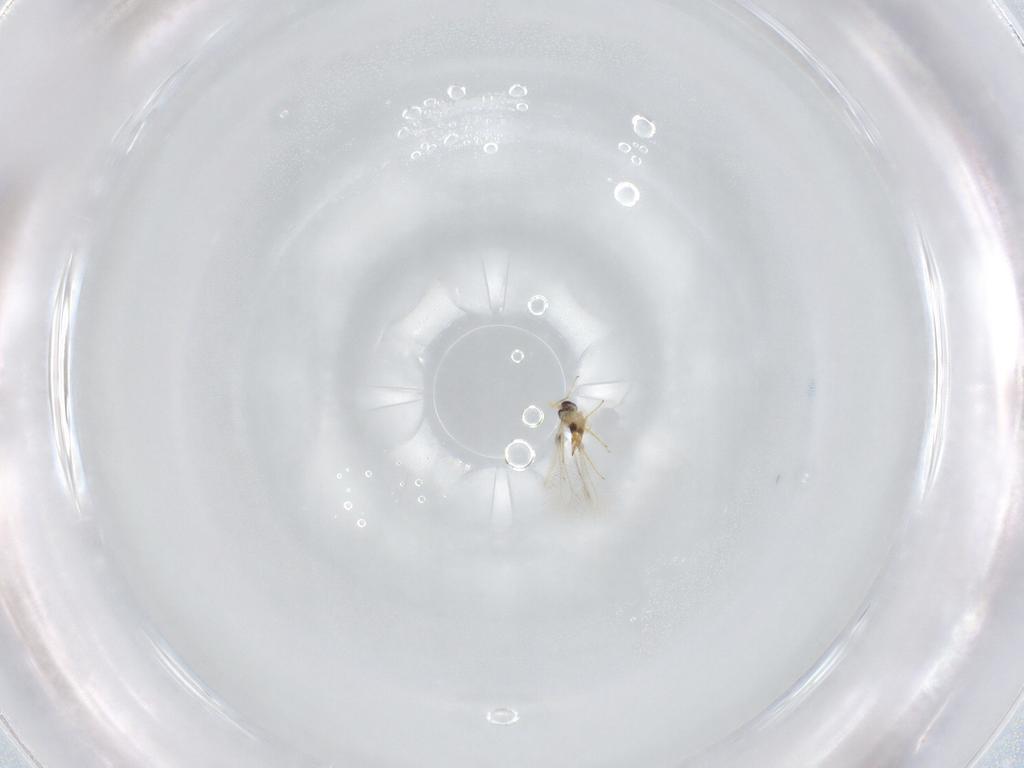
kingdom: Animalia
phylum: Arthropoda
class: Insecta
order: Hymenoptera
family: Mymaridae
